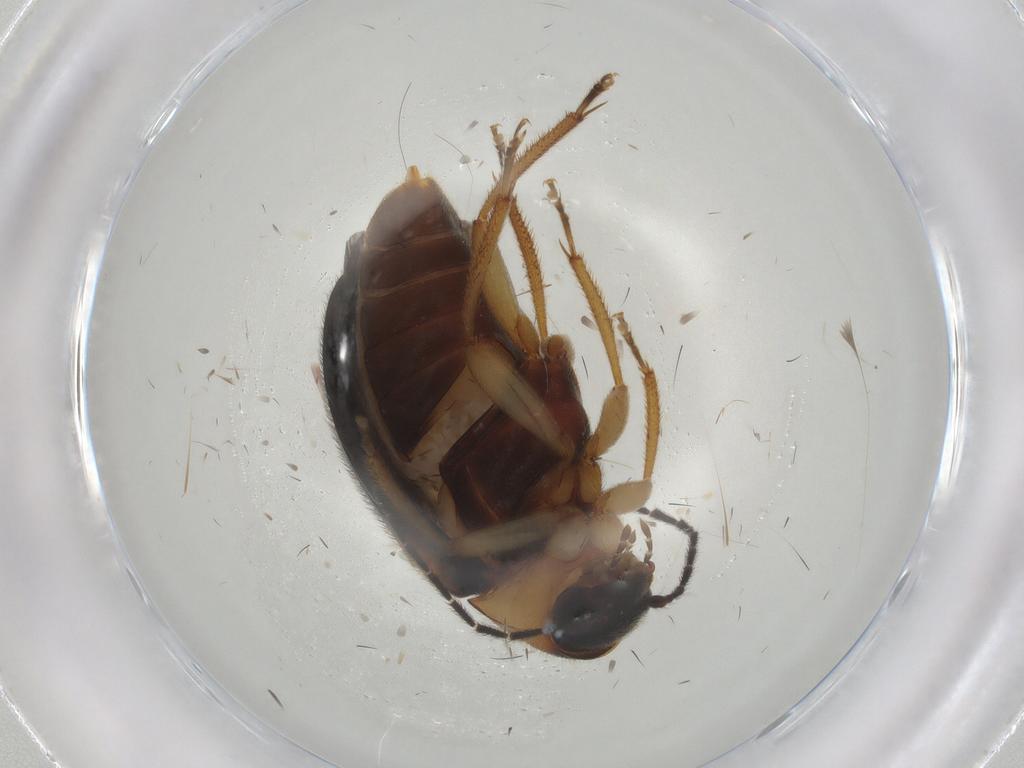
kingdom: Animalia
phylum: Arthropoda
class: Insecta
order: Coleoptera
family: Ptilodactylidae
